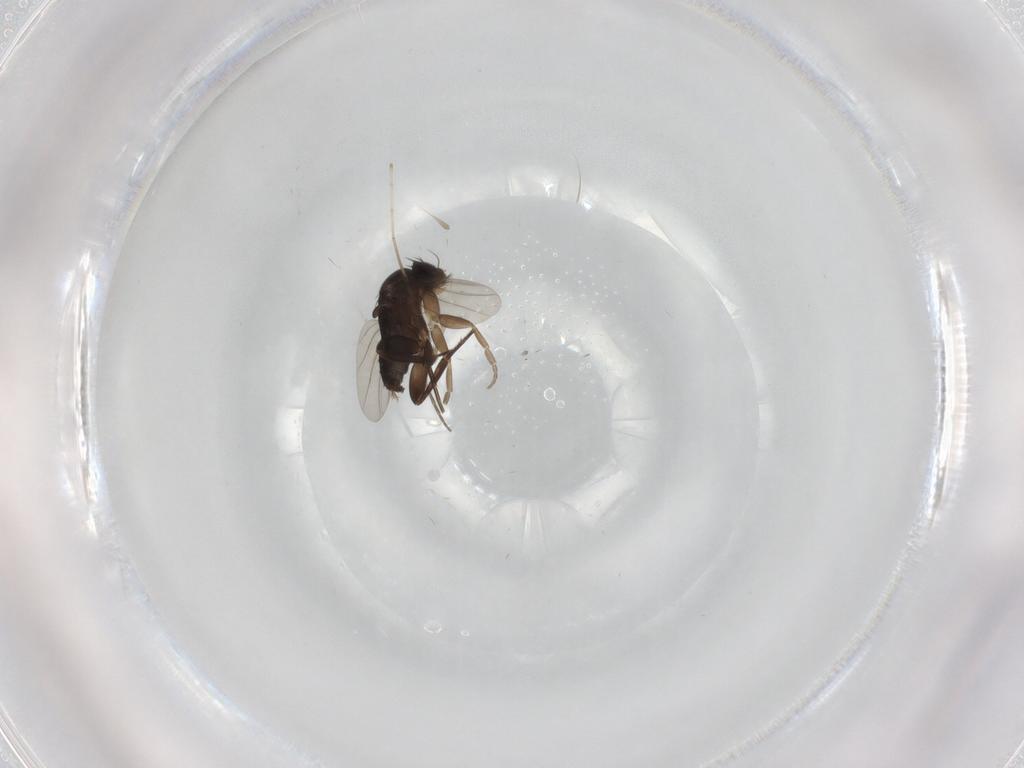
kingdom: Animalia
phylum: Arthropoda
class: Insecta
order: Diptera
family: Phoridae
